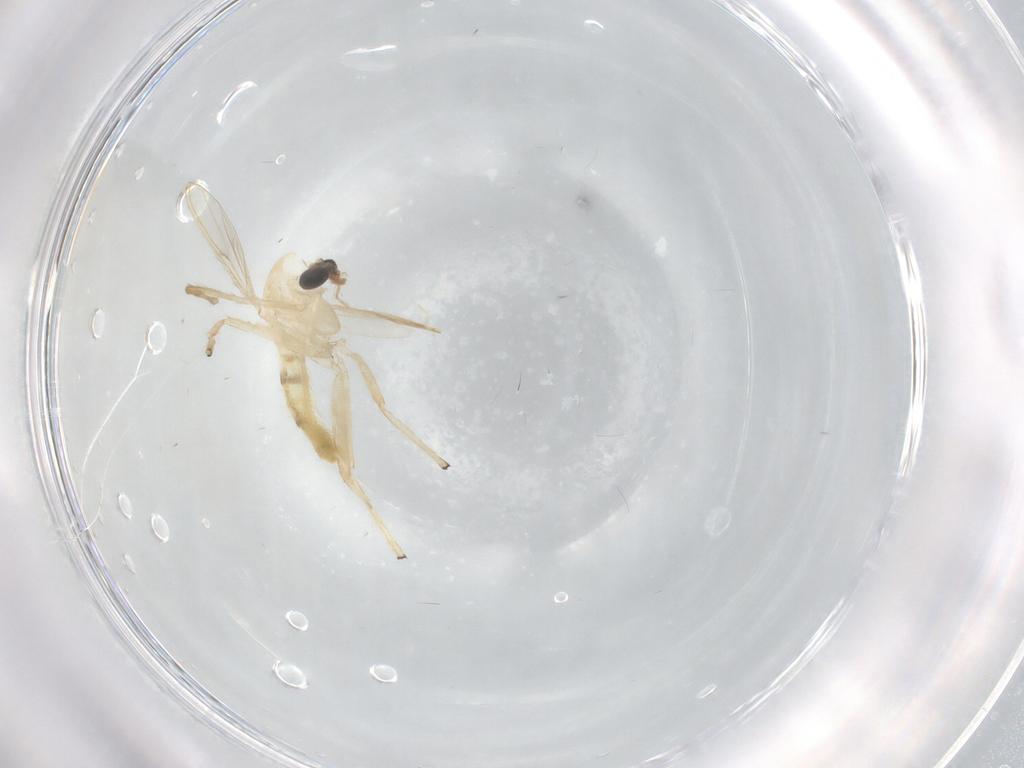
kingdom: Animalia
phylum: Arthropoda
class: Insecta
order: Diptera
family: Chironomidae
